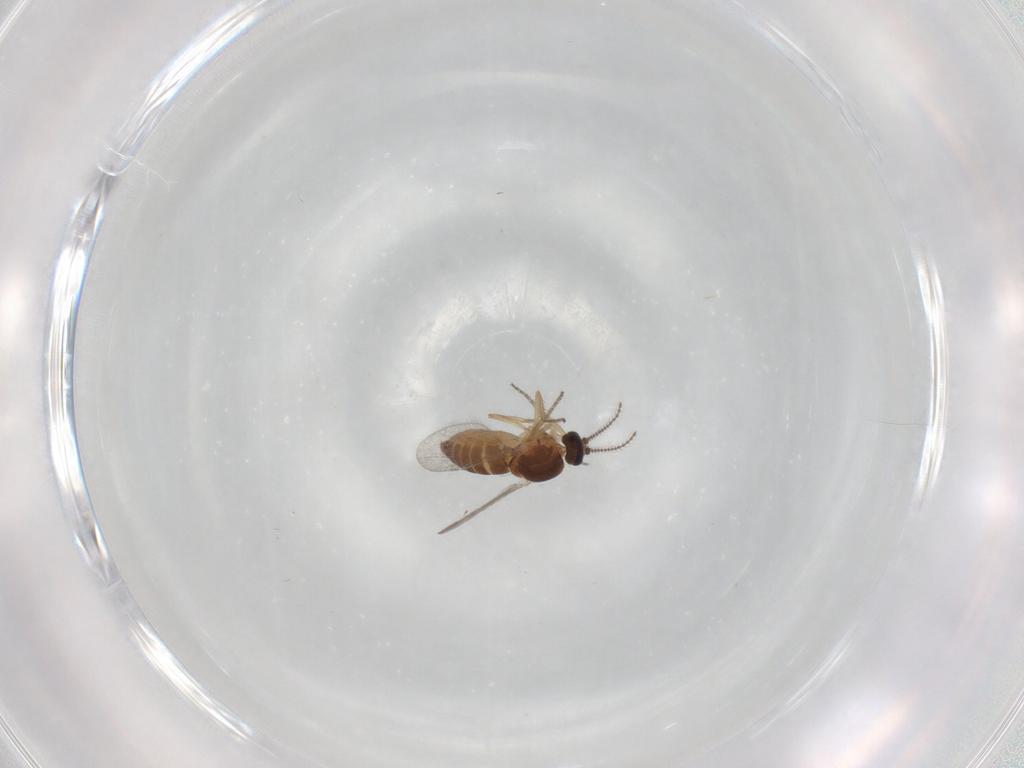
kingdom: Animalia
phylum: Arthropoda
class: Insecta
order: Diptera
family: Ceratopogonidae
